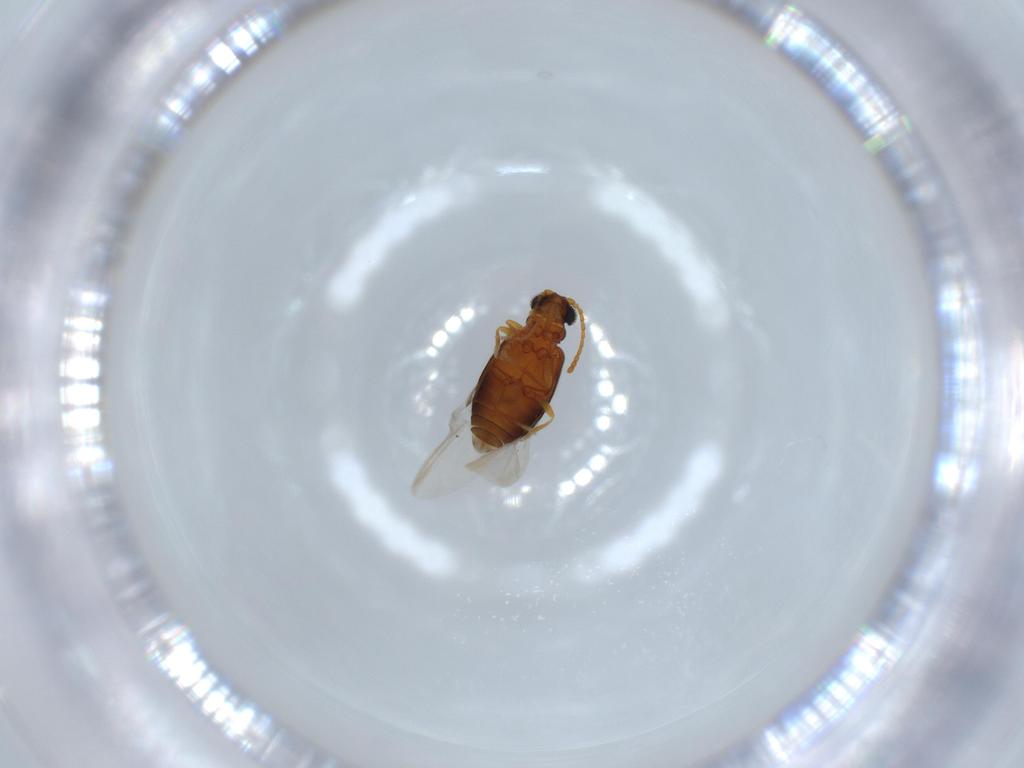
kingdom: Animalia
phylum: Arthropoda
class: Insecta
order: Coleoptera
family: Aderidae
